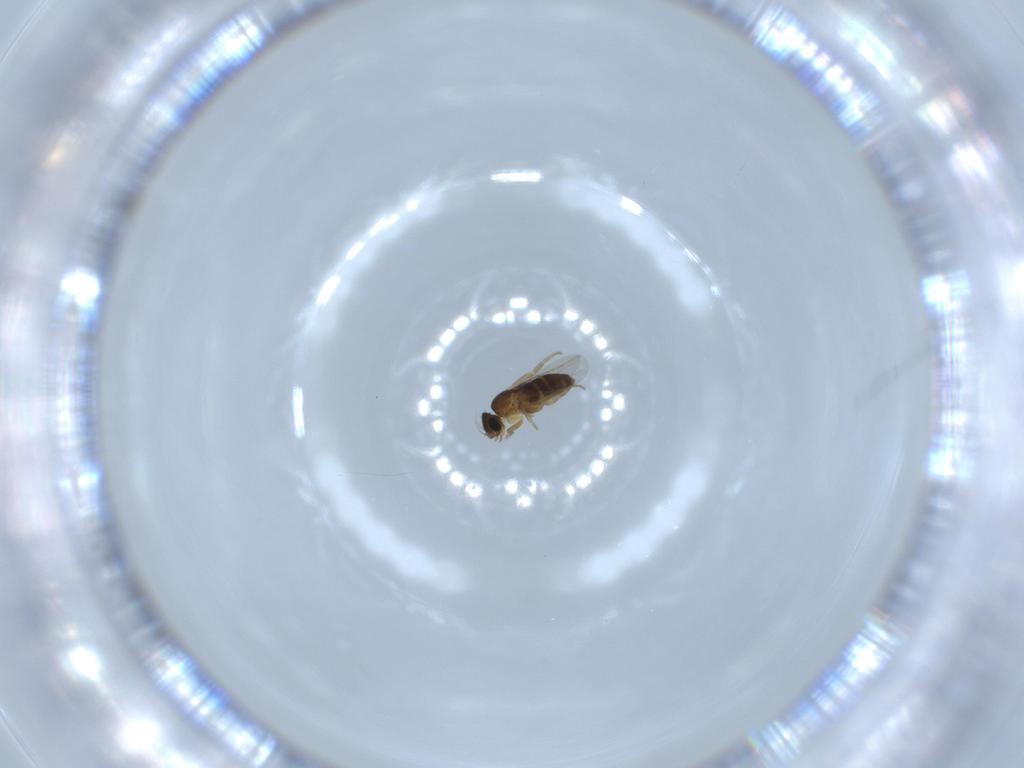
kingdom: Animalia
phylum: Arthropoda
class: Insecta
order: Diptera
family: Phoridae
